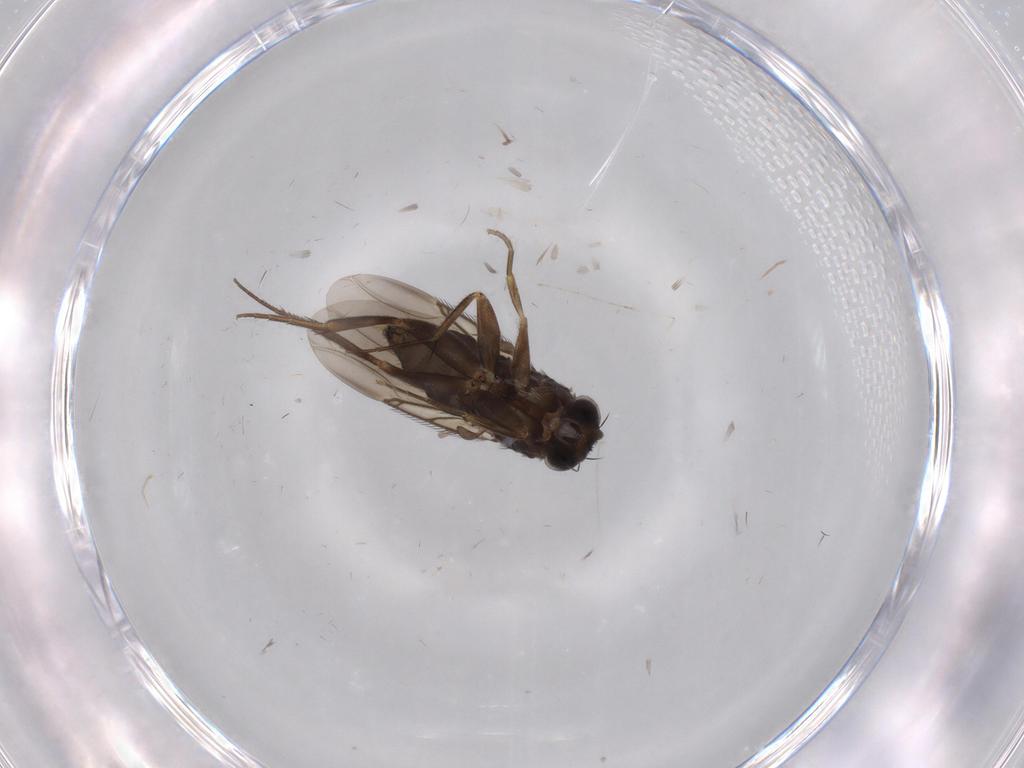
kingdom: Animalia
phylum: Arthropoda
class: Insecta
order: Diptera
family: Phoridae
